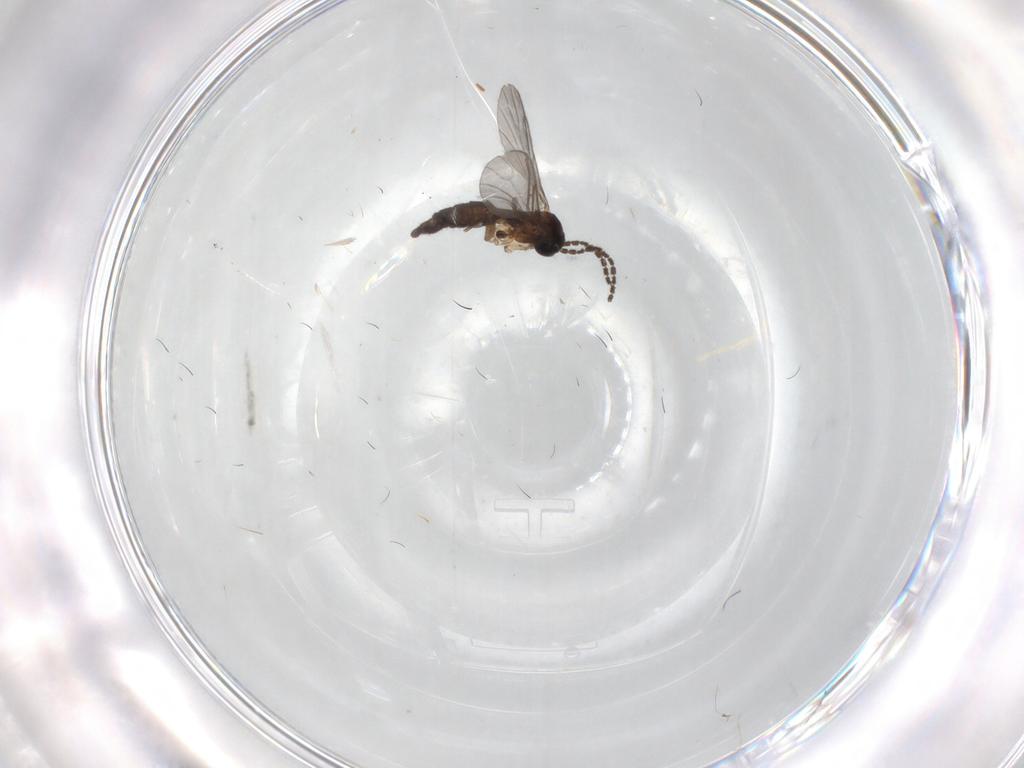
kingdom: Animalia
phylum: Arthropoda
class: Insecta
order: Diptera
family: Sciaridae
